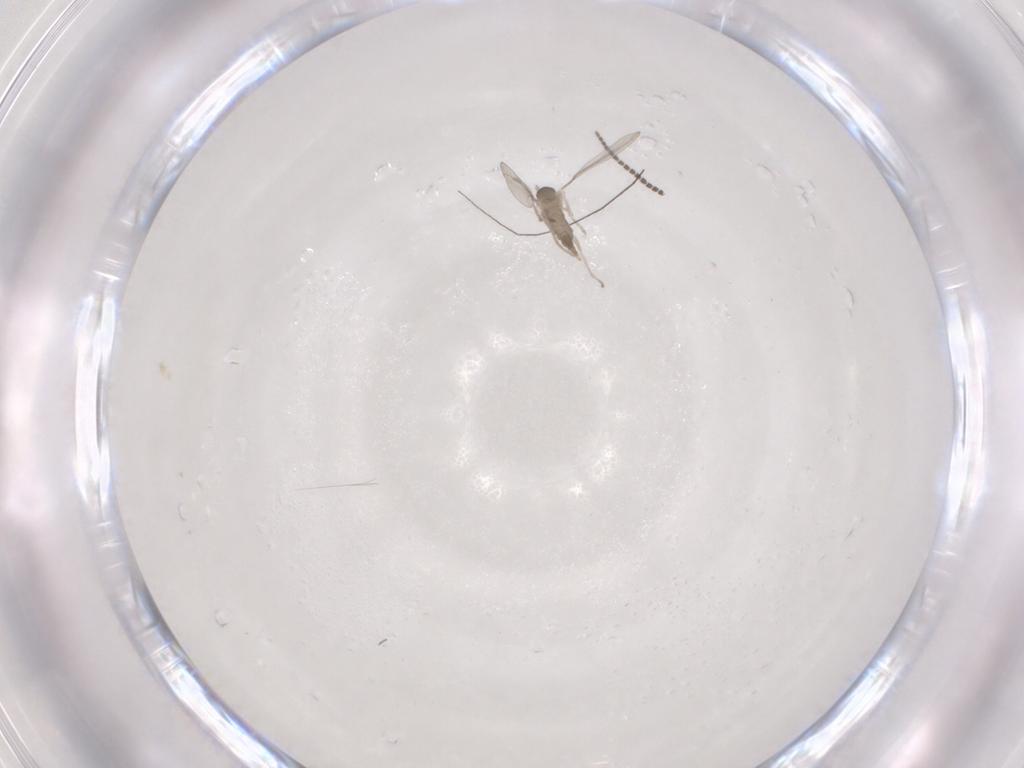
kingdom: Animalia
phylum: Arthropoda
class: Insecta
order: Diptera
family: Cecidomyiidae
